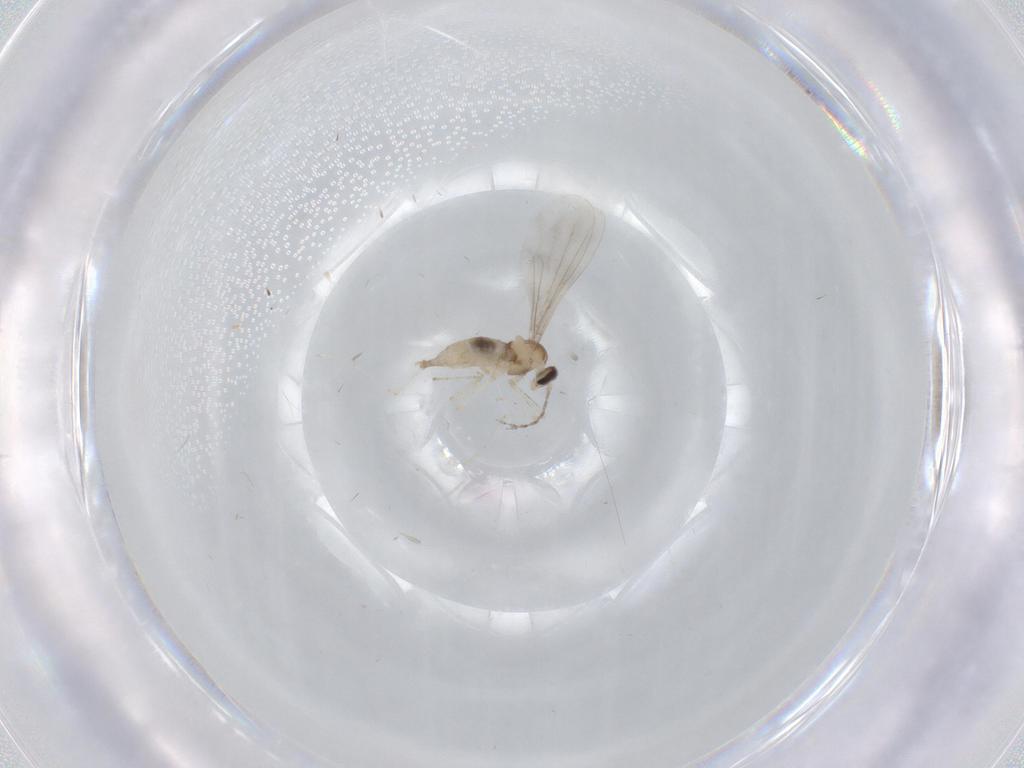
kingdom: Animalia
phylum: Arthropoda
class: Insecta
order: Diptera
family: Cecidomyiidae
